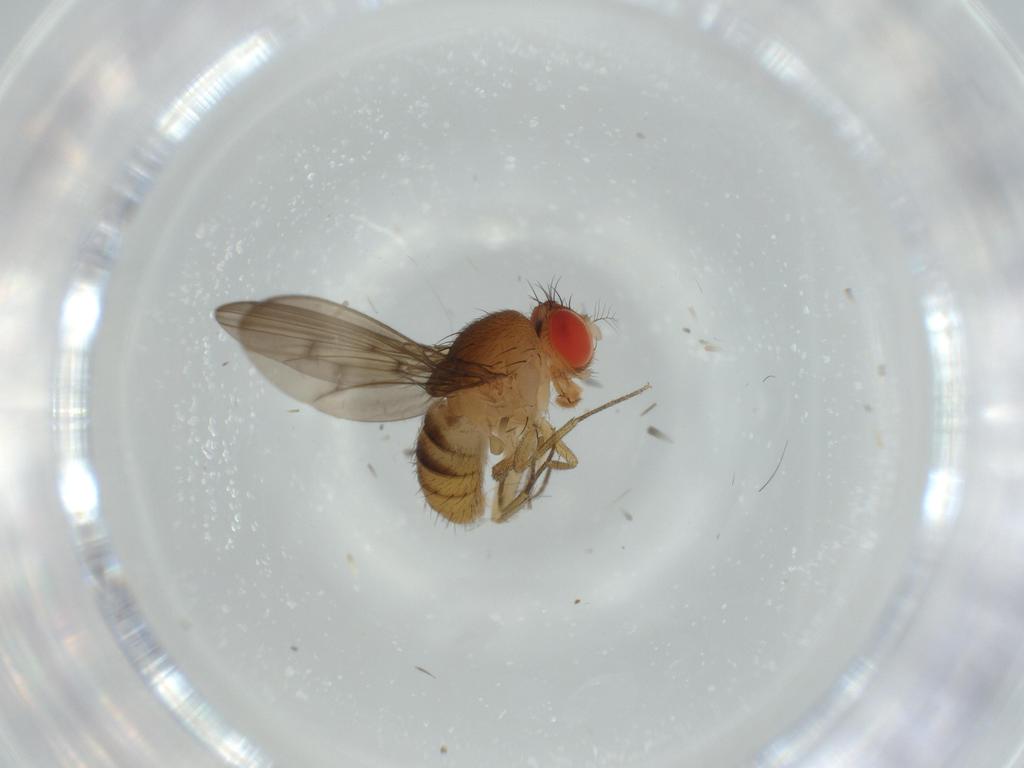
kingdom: Animalia
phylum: Arthropoda
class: Insecta
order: Diptera
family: Drosophilidae
